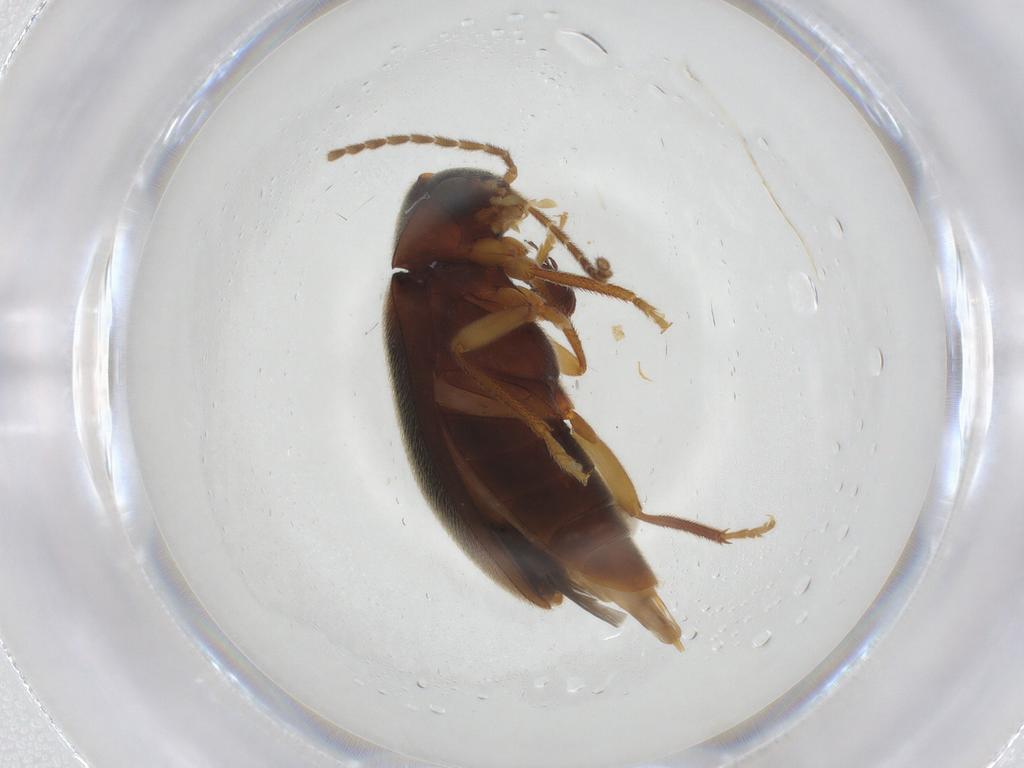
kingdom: Animalia
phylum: Arthropoda
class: Insecta
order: Coleoptera
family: Ptilodactylidae
